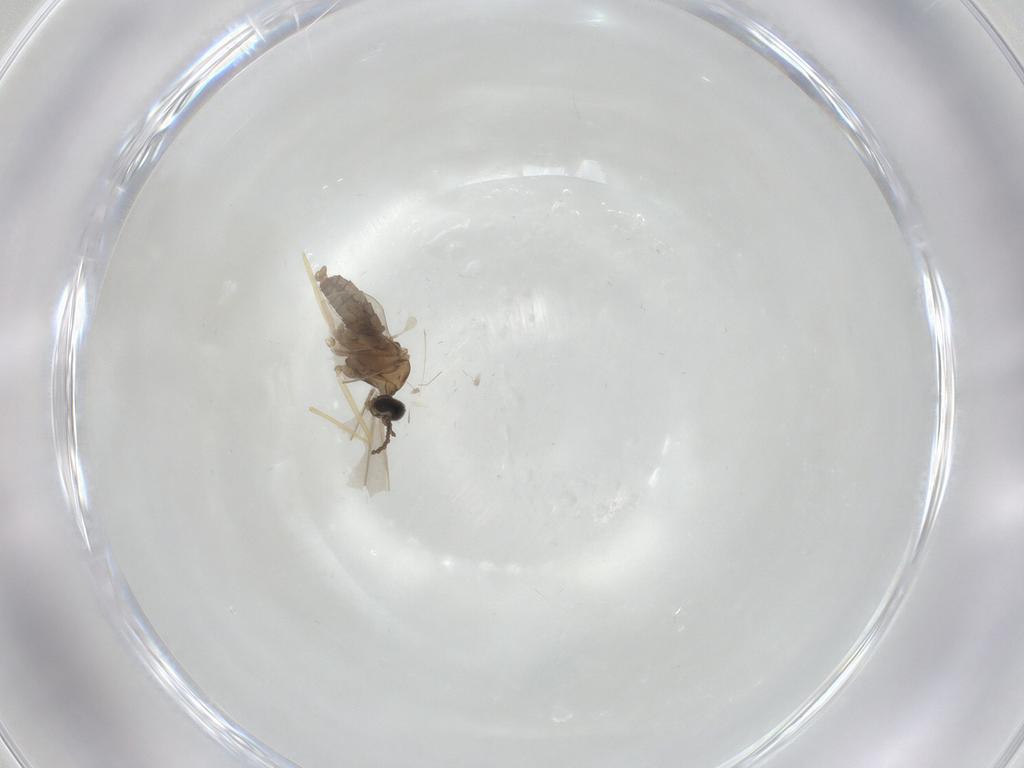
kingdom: Animalia
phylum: Arthropoda
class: Insecta
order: Diptera
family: Cecidomyiidae
